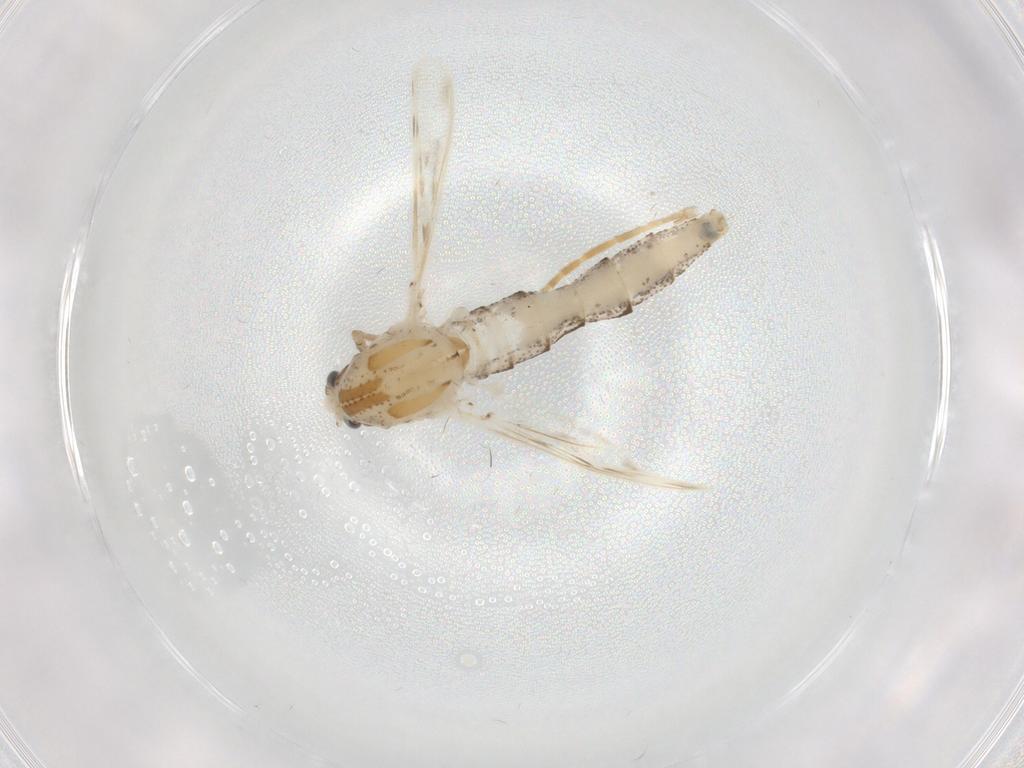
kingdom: Animalia
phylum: Arthropoda
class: Insecta
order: Diptera
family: Chaoboridae
